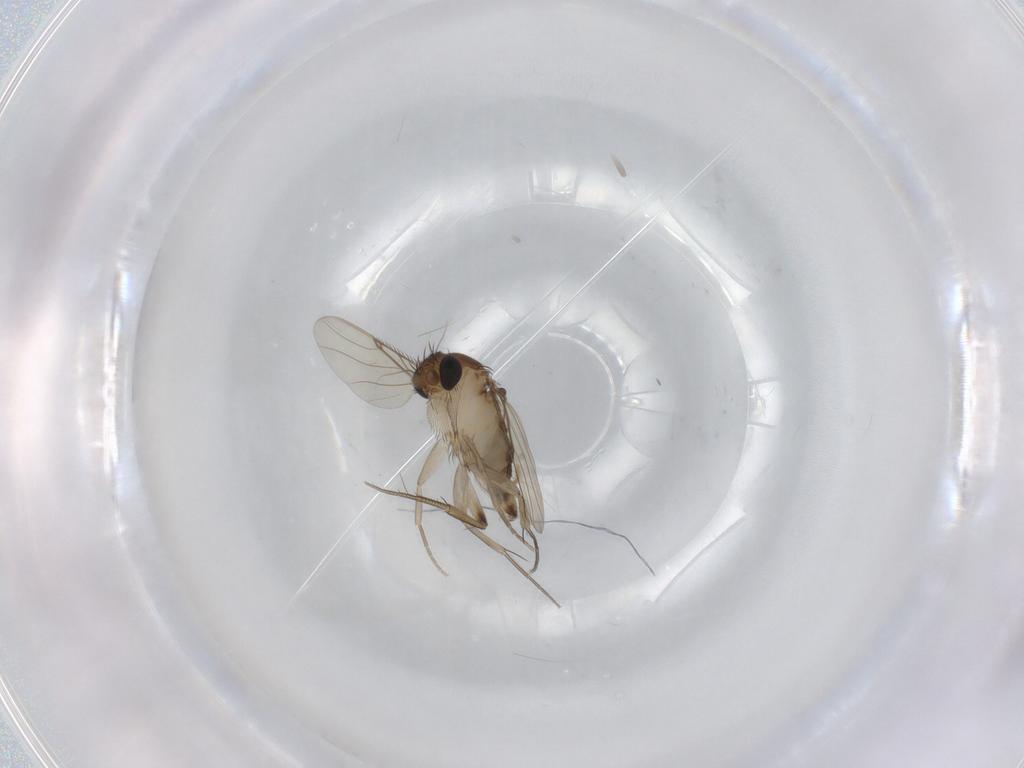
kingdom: Animalia
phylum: Arthropoda
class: Insecta
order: Diptera
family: Phoridae
